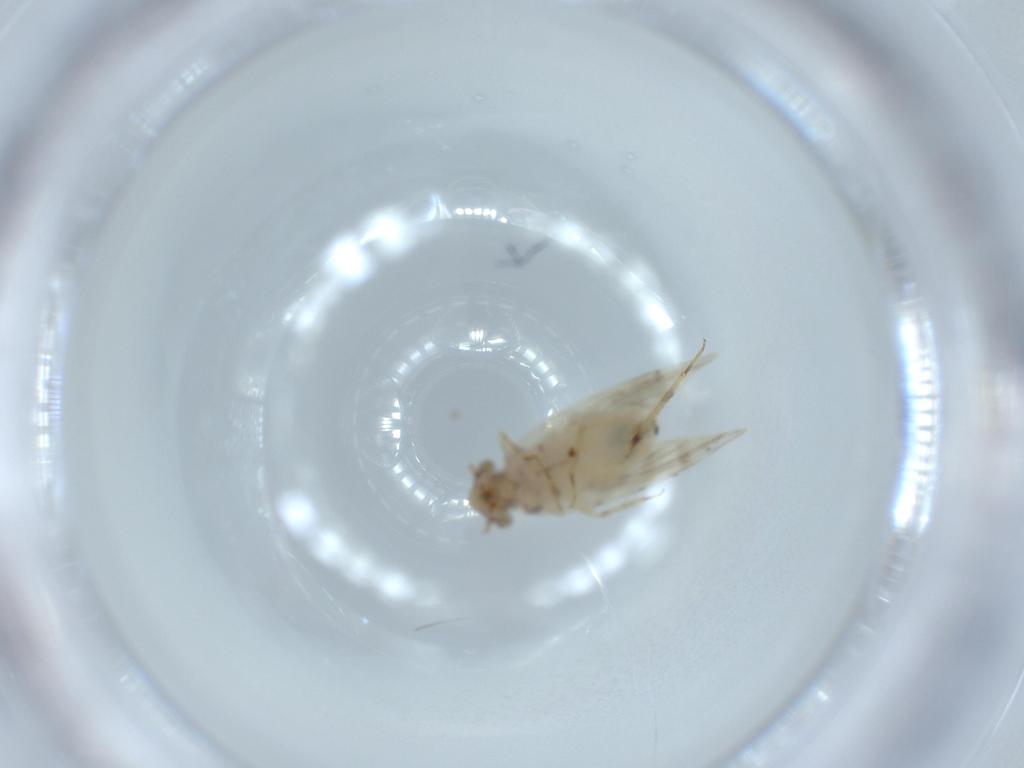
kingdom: Animalia
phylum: Arthropoda
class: Insecta
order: Psocodea
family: Lepidopsocidae
